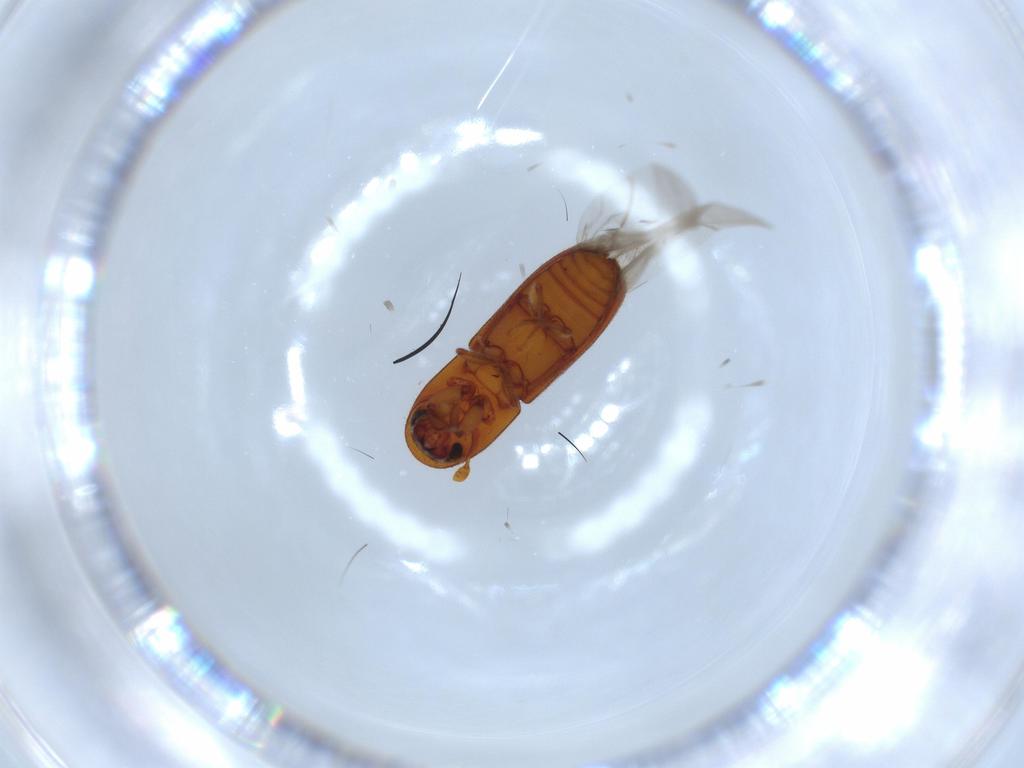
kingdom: Animalia
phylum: Arthropoda
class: Insecta
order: Coleoptera
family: Curculionidae
